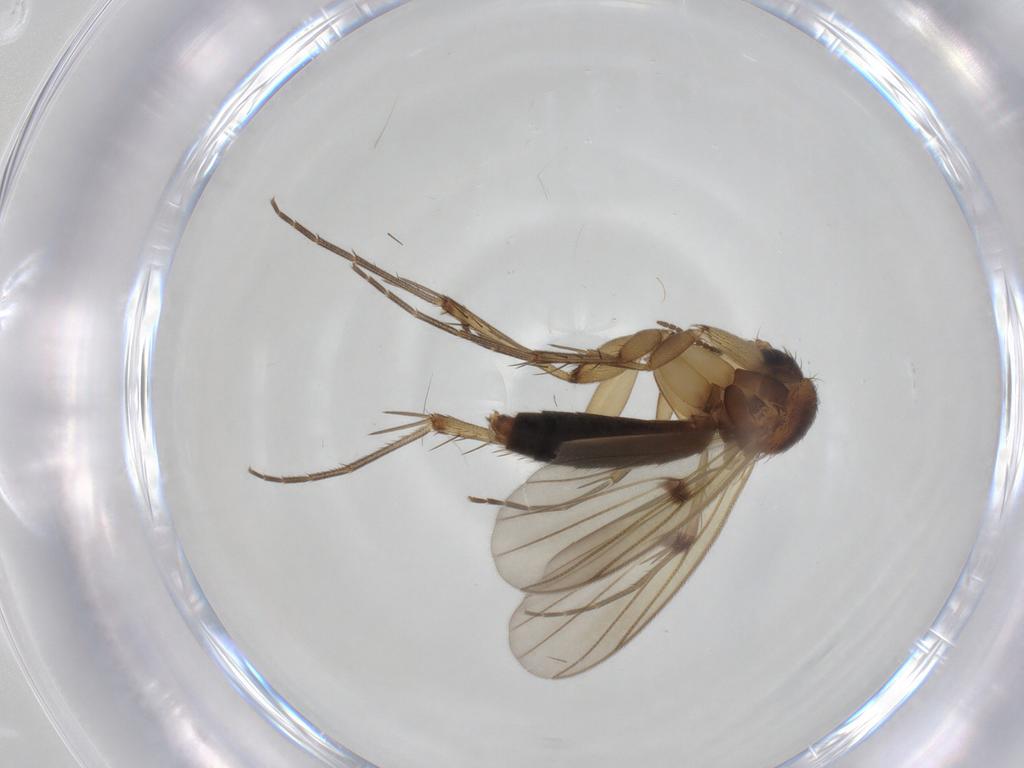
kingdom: Animalia
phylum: Arthropoda
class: Insecta
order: Diptera
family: Mycetophilidae
